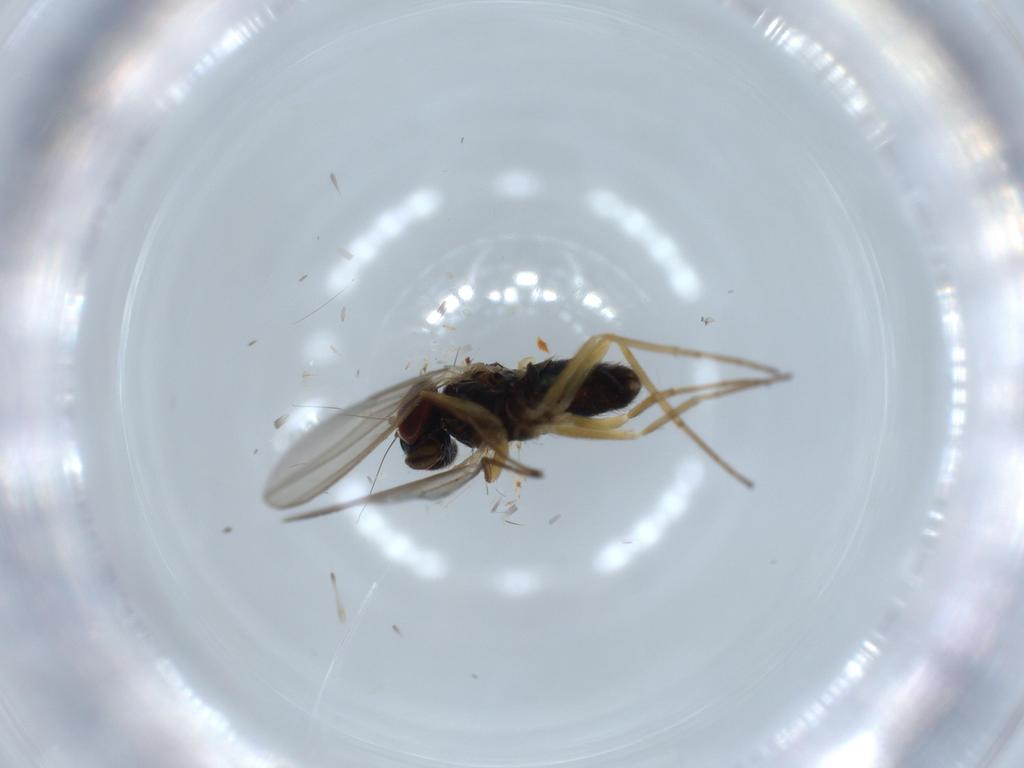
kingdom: Animalia
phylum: Arthropoda
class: Insecta
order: Diptera
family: Dolichopodidae
